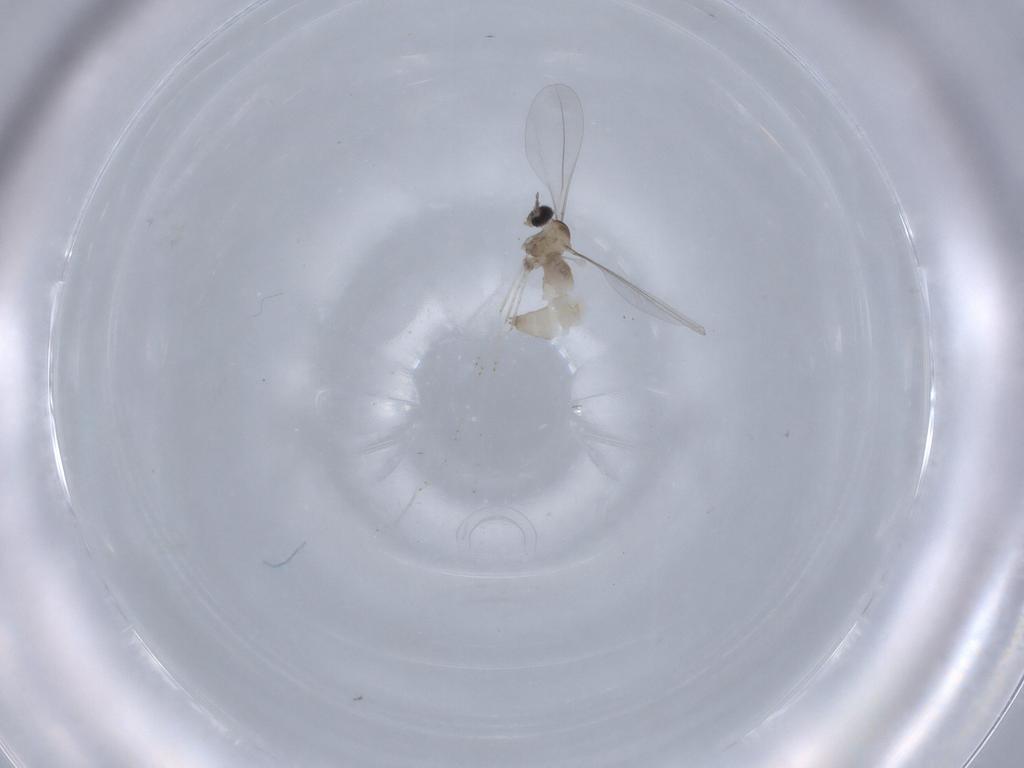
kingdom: Animalia
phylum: Arthropoda
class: Insecta
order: Diptera
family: Cecidomyiidae
